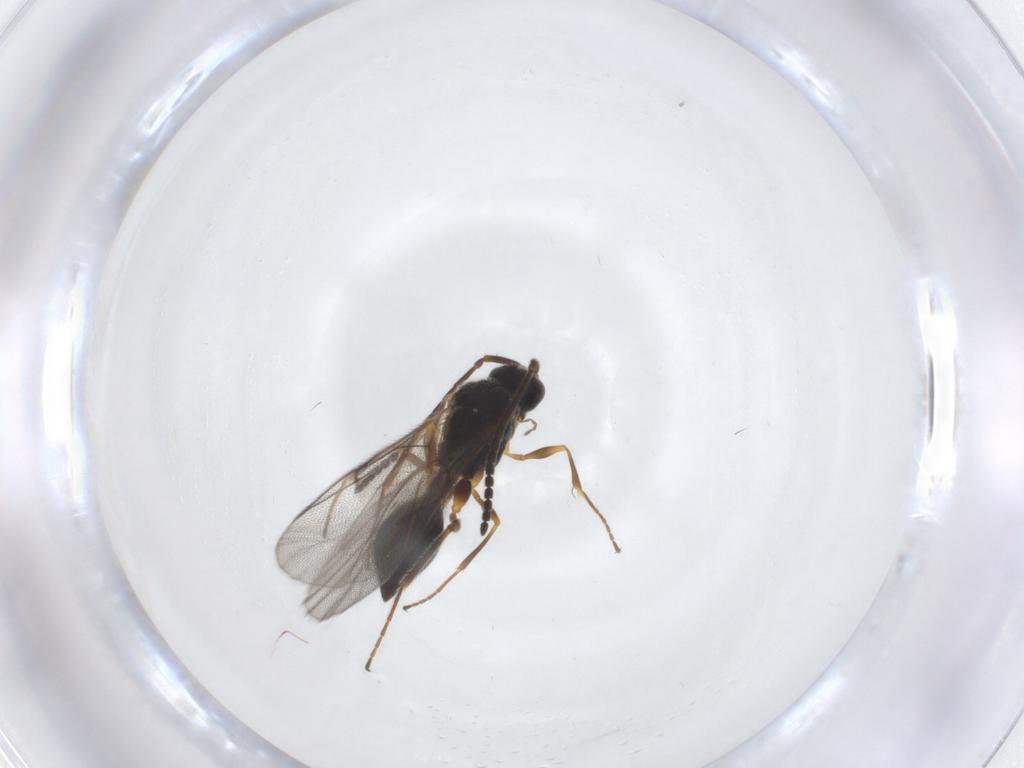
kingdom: Animalia
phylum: Arthropoda
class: Insecta
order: Hymenoptera
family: Diapriidae
